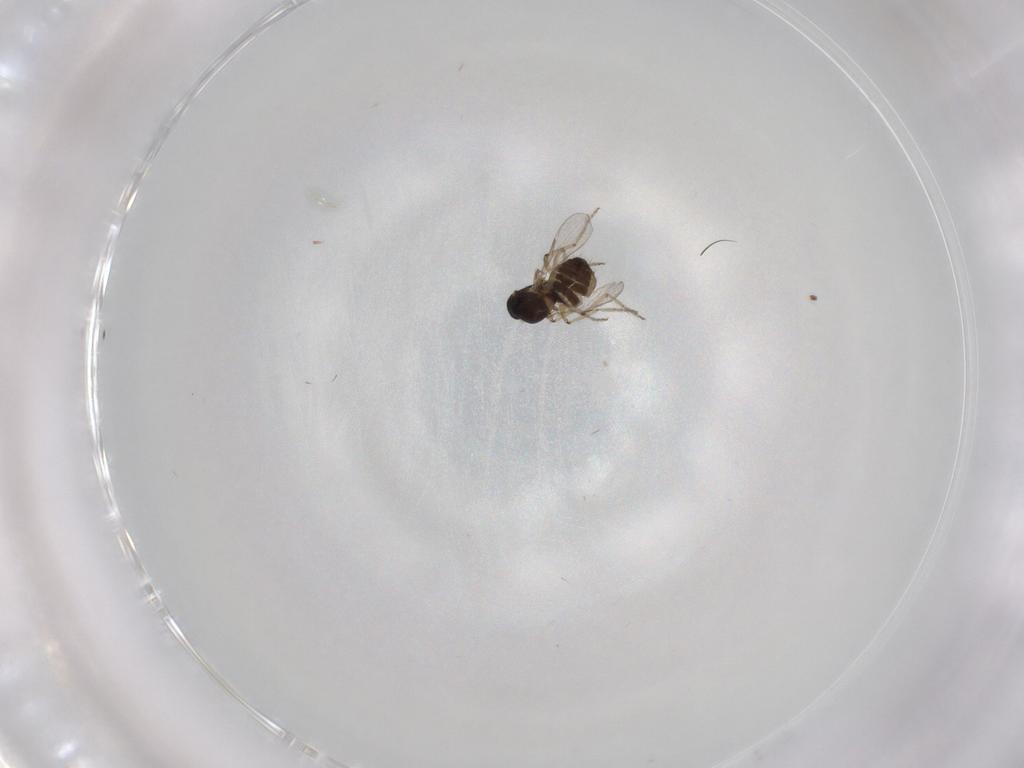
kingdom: Animalia
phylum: Arthropoda
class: Insecta
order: Diptera
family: Ceratopogonidae
